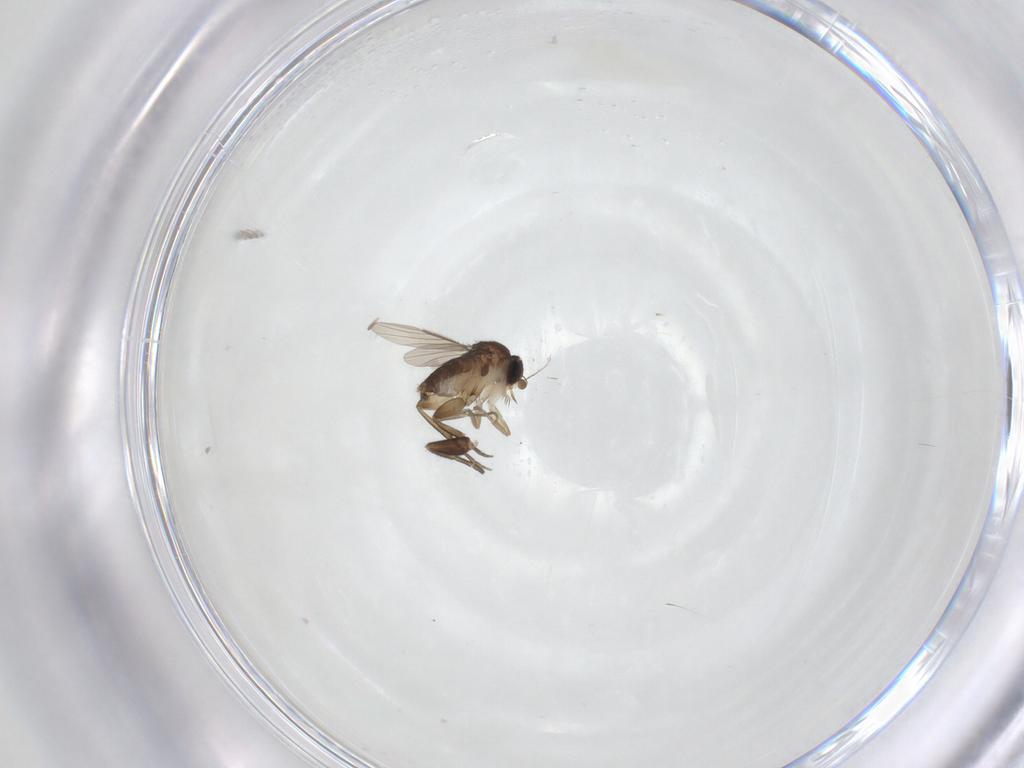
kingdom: Animalia
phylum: Arthropoda
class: Insecta
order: Diptera
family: Phoridae
